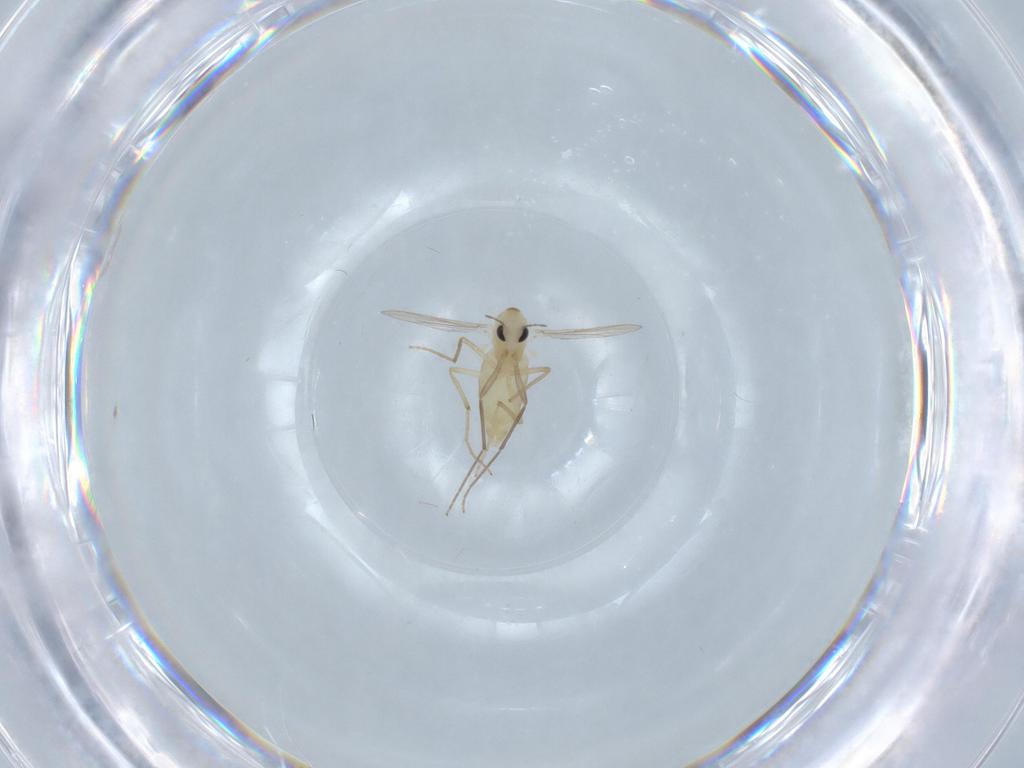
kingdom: Animalia
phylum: Arthropoda
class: Insecta
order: Diptera
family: Chironomidae
